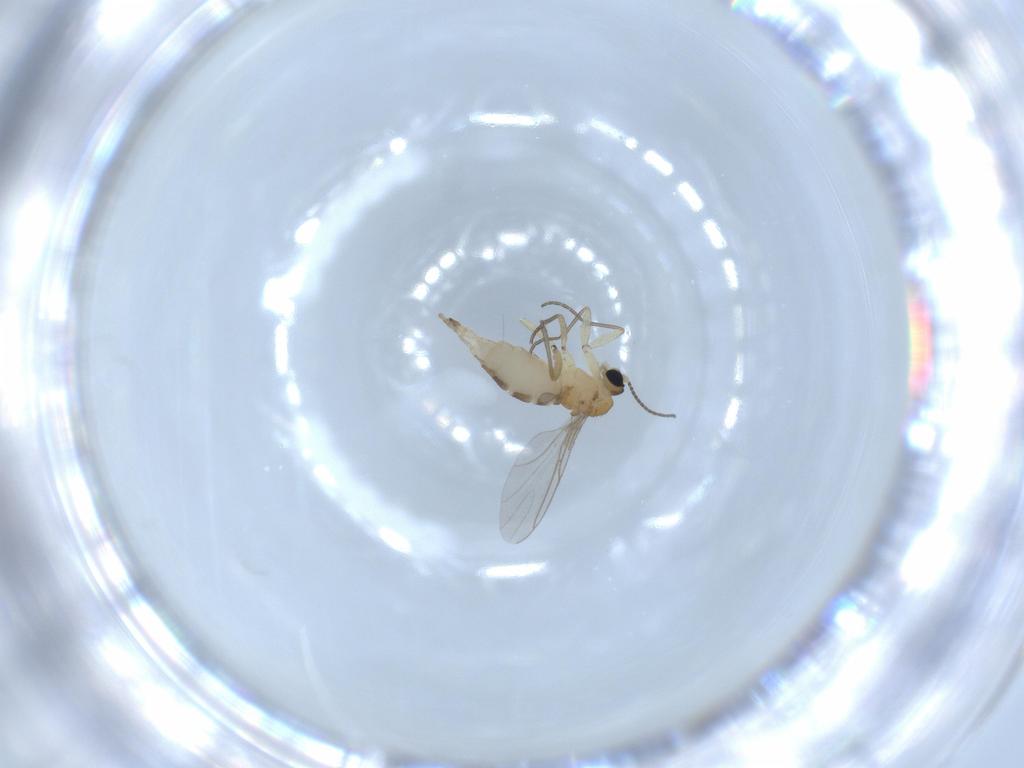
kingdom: Animalia
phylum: Arthropoda
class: Insecta
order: Diptera
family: Sciaridae
